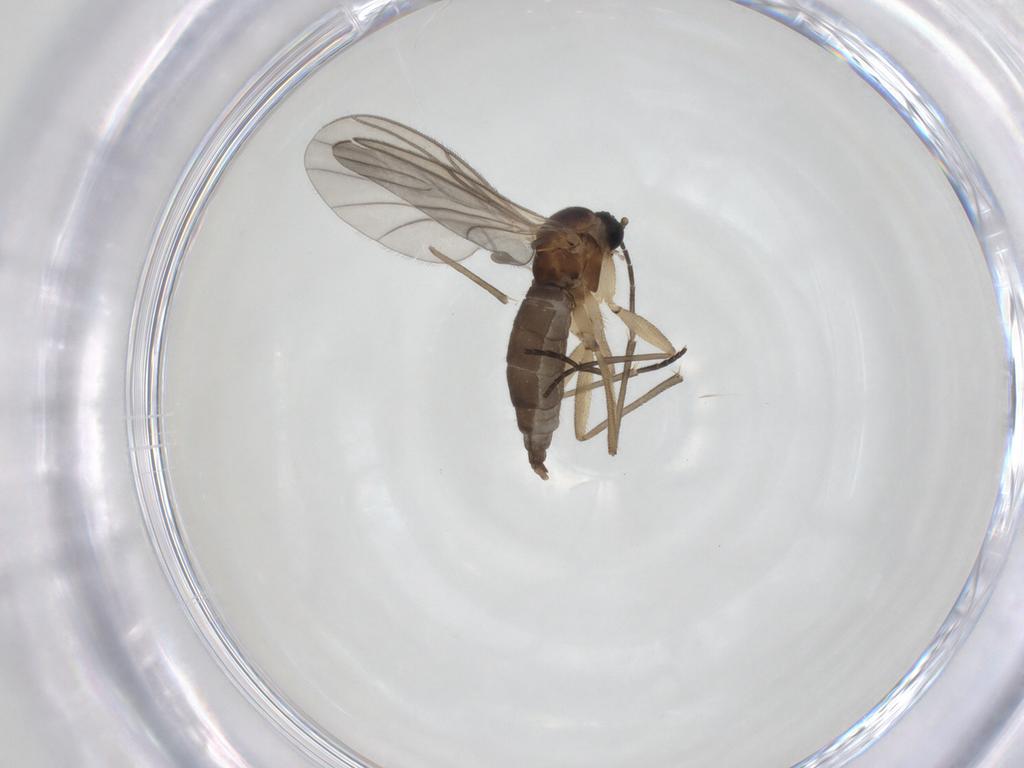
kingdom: Animalia
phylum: Arthropoda
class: Insecta
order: Diptera
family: Sciaridae
